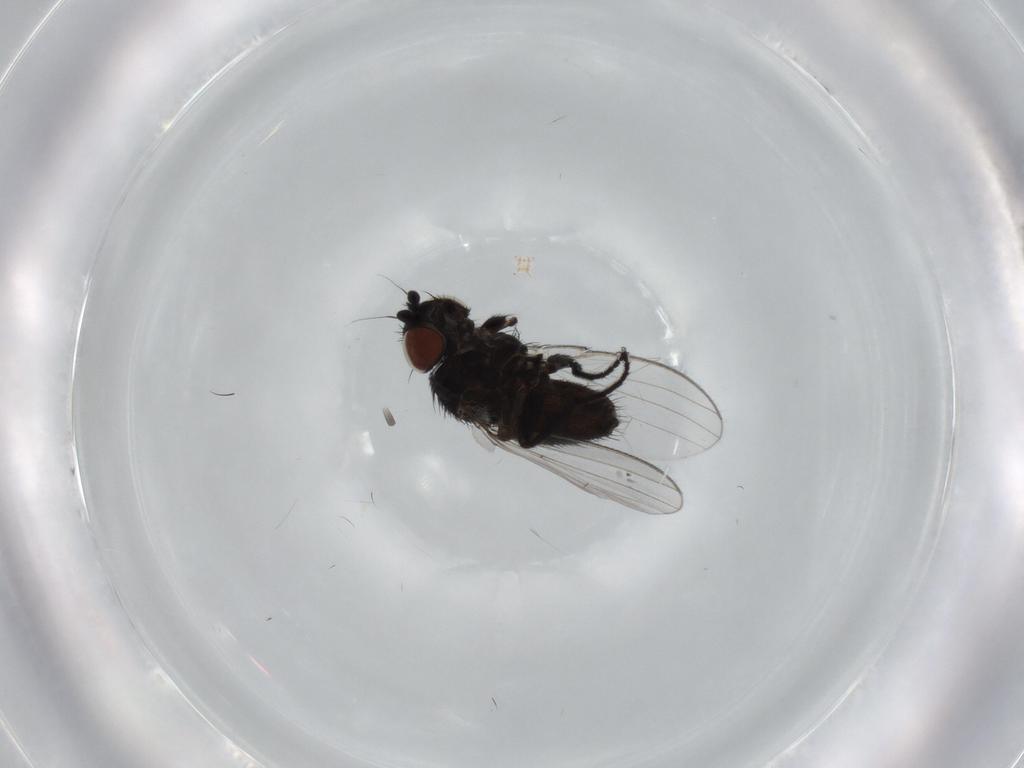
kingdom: Animalia
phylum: Arthropoda
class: Insecta
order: Diptera
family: Milichiidae
